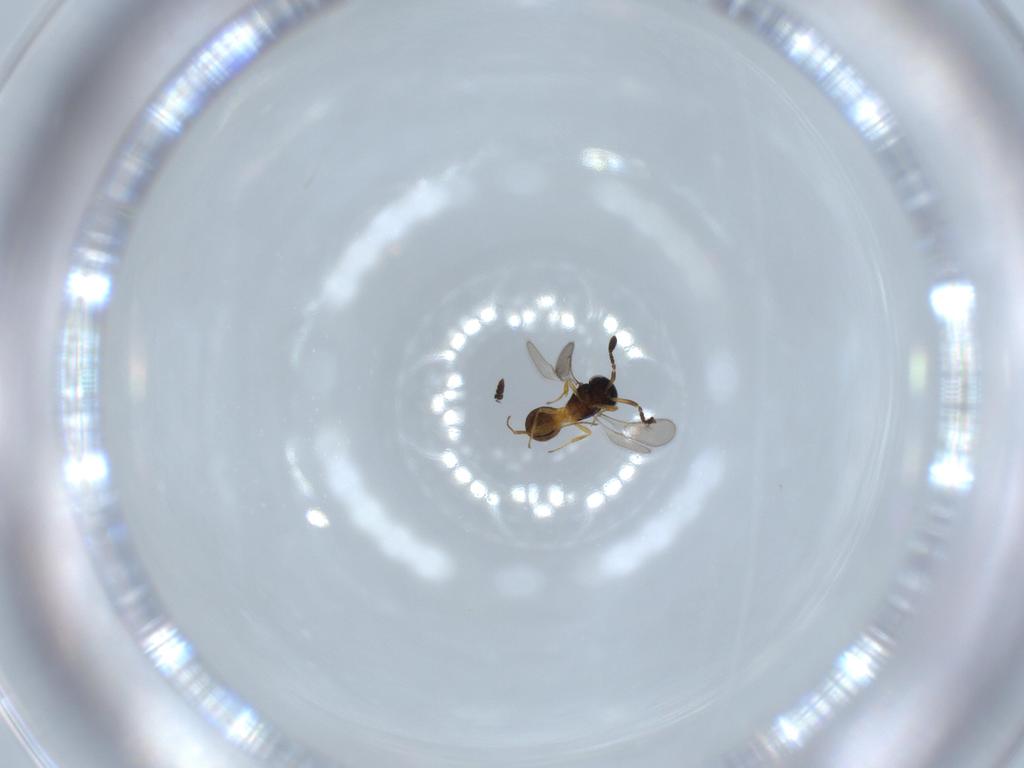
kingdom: Animalia
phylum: Arthropoda
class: Insecta
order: Hymenoptera
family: Scelionidae
